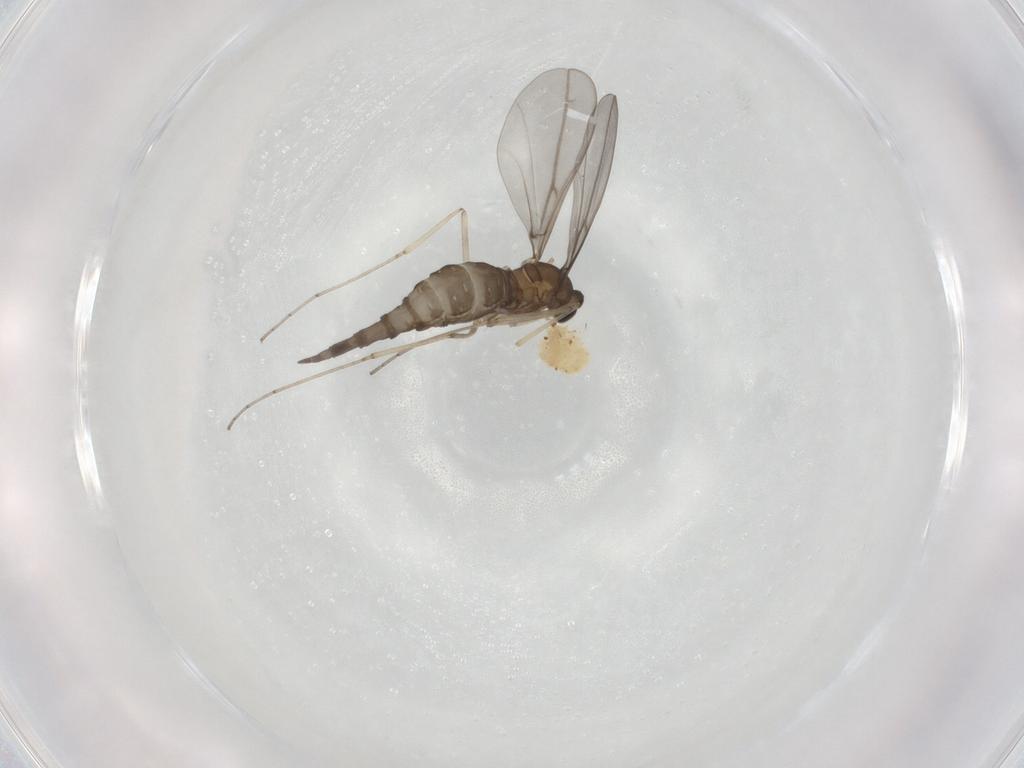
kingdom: Animalia
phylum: Arthropoda
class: Insecta
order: Diptera
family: Cecidomyiidae
